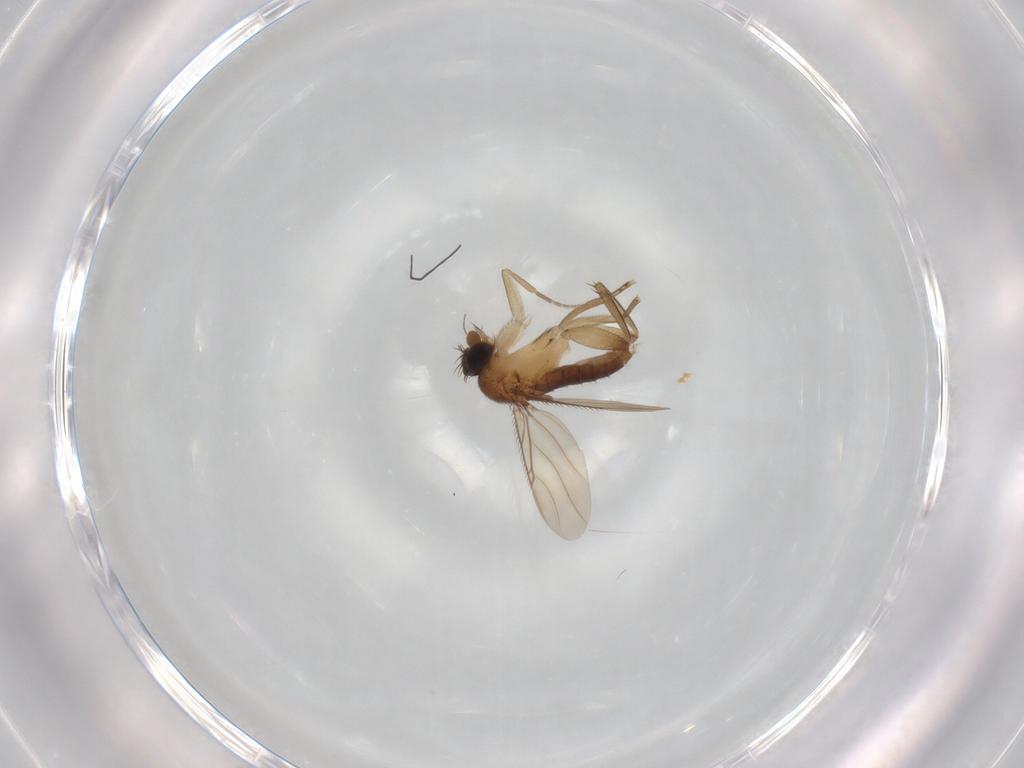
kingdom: Animalia
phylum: Arthropoda
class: Insecta
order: Diptera
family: Phoridae
